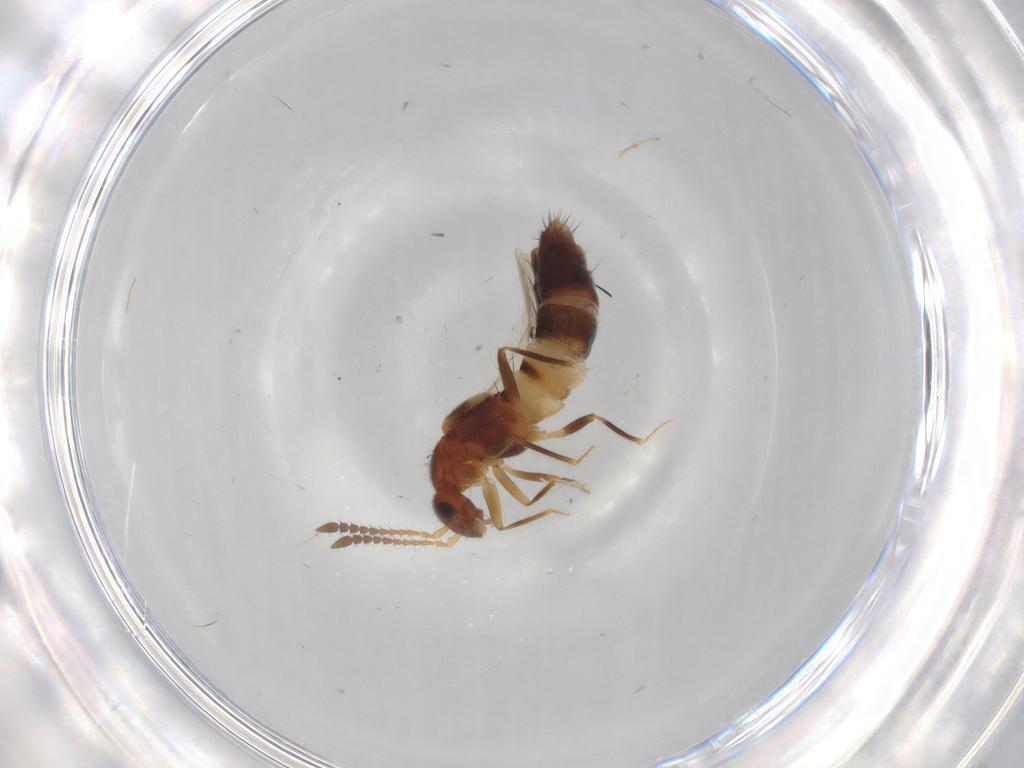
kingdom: Animalia
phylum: Arthropoda
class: Insecta
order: Coleoptera
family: Staphylinidae
